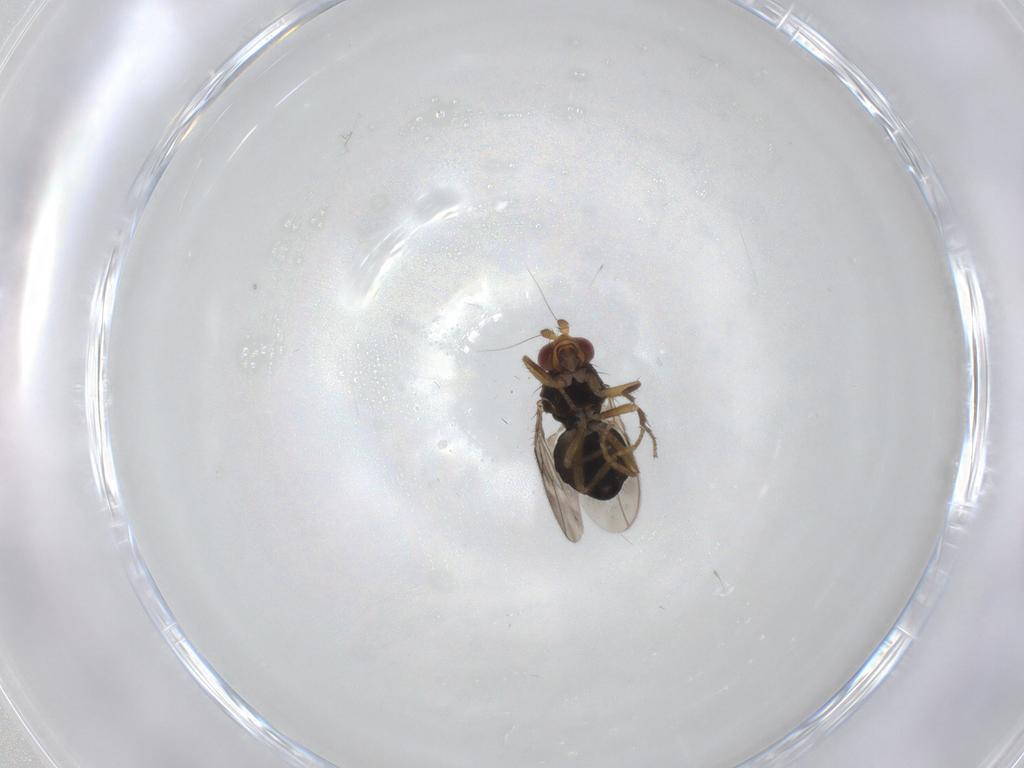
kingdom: Animalia
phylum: Arthropoda
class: Insecta
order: Diptera
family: Sphaeroceridae
